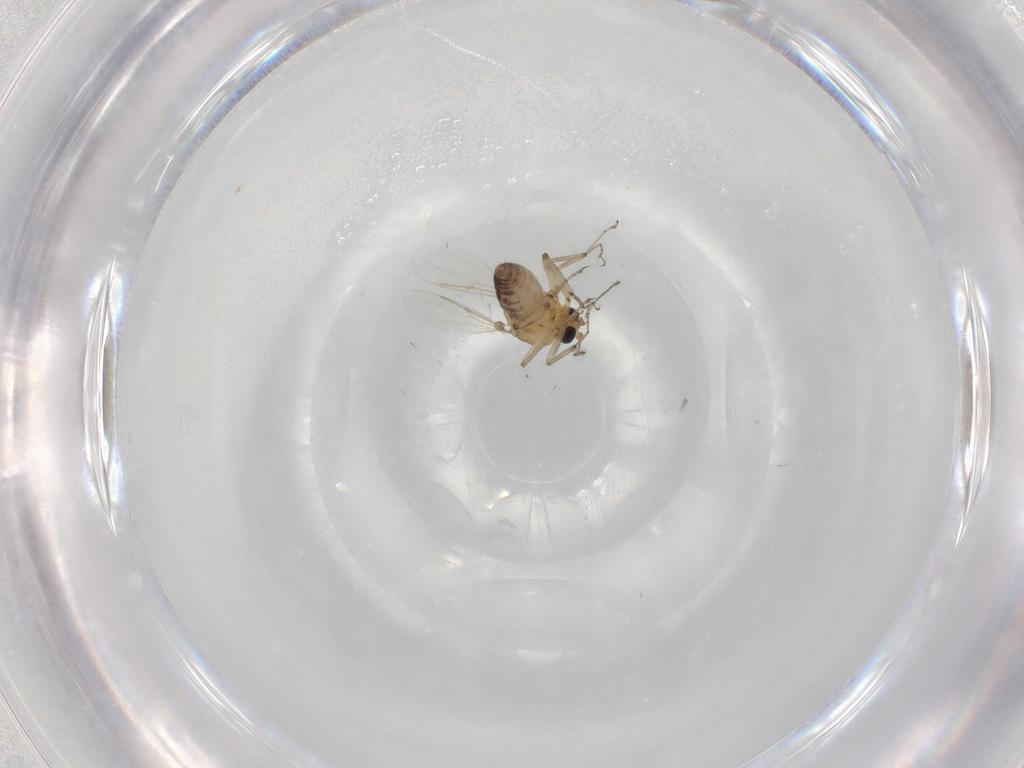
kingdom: Animalia
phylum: Arthropoda
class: Insecta
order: Diptera
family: Ceratopogonidae
